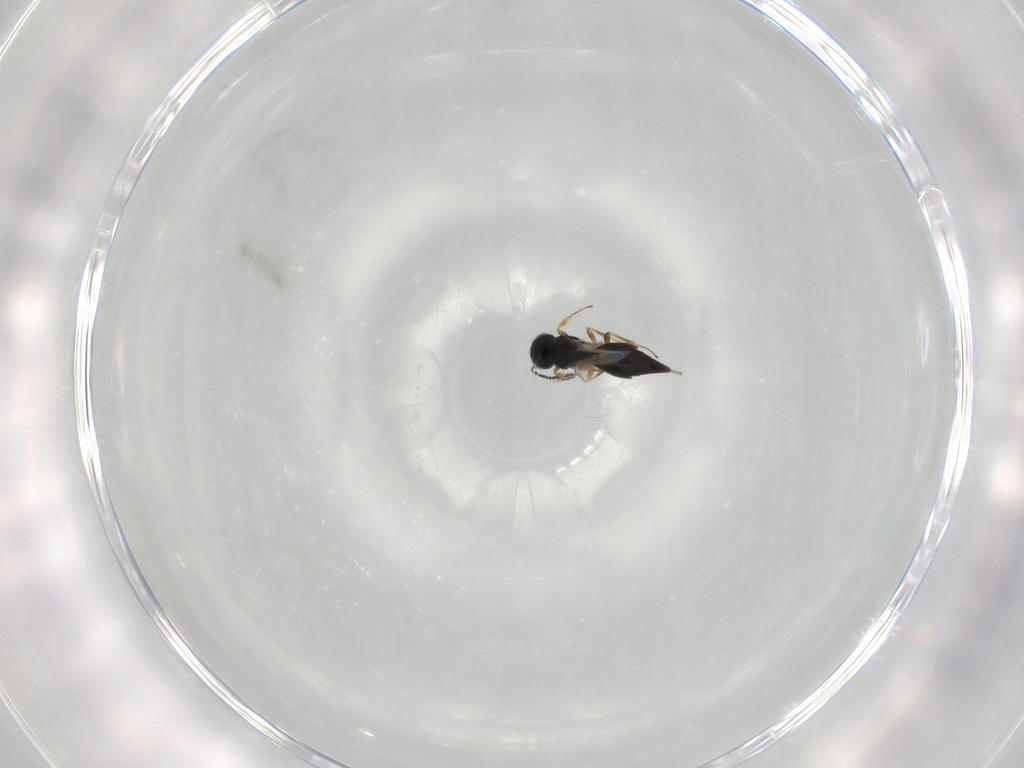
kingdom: Animalia
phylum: Arthropoda
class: Insecta
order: Hymenoptera
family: Scelionidae
